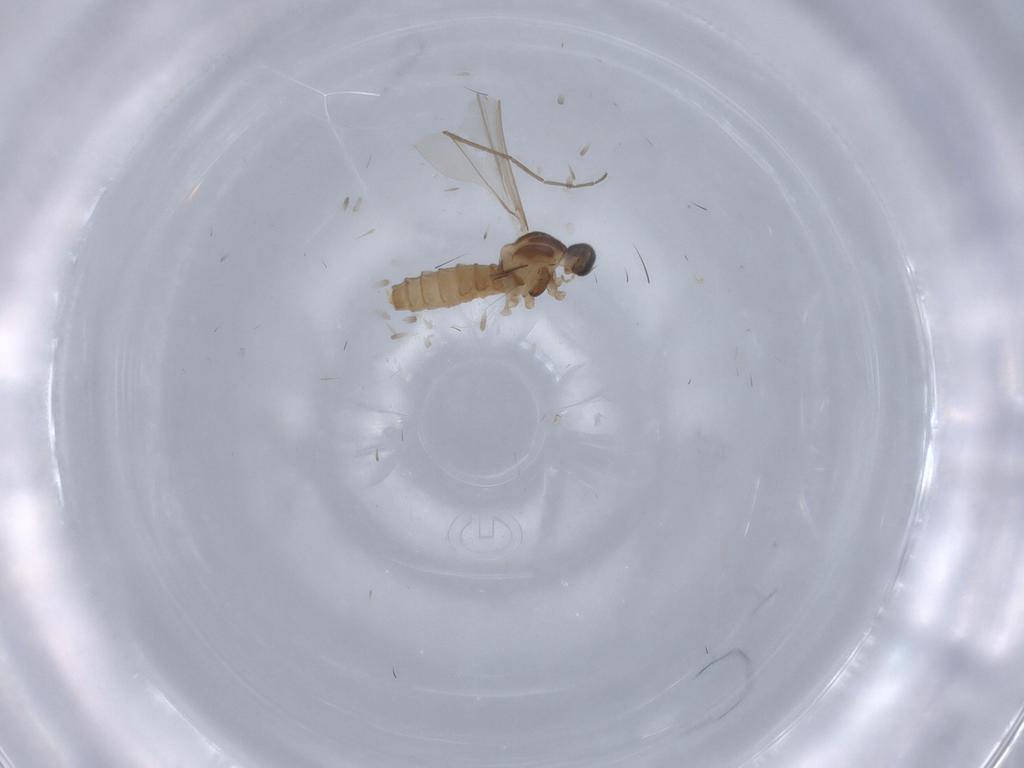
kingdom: Animalia
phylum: Arthropoda
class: Insecta
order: Diptera
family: Cecidomyiidae
